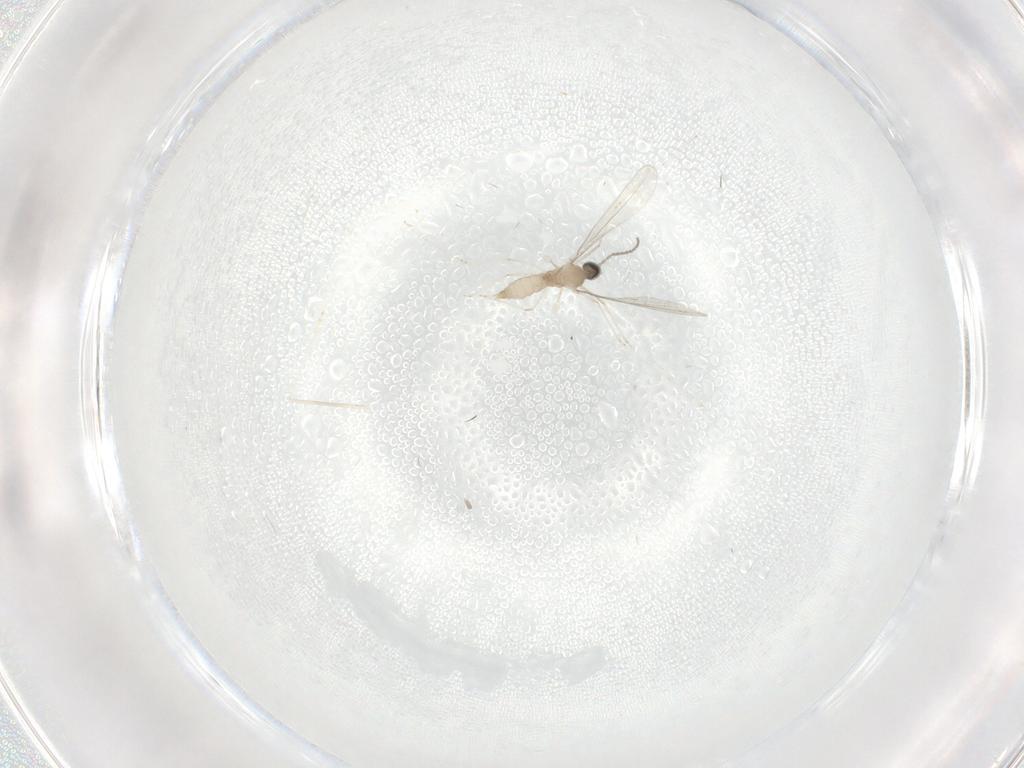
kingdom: Animalia
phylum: Arthropoda
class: Insecta
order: Diptera
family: Cecidomyiidae
